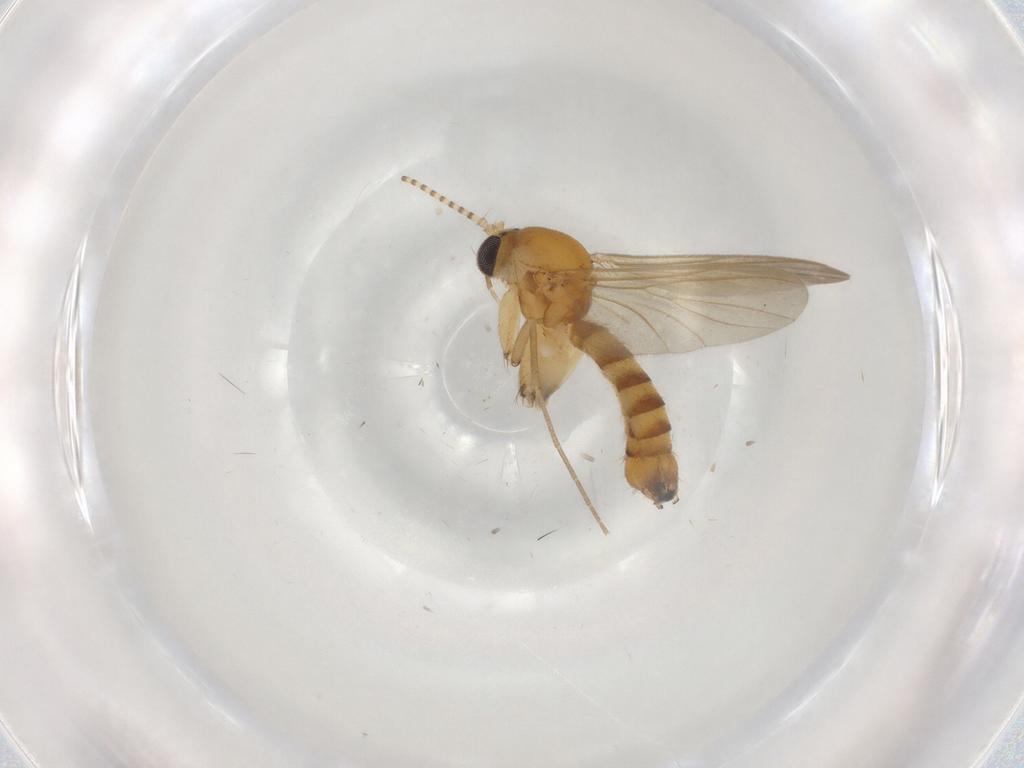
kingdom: Animalia
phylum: Arthropoda
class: Insecta
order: Diptera
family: Mycetophilidae
